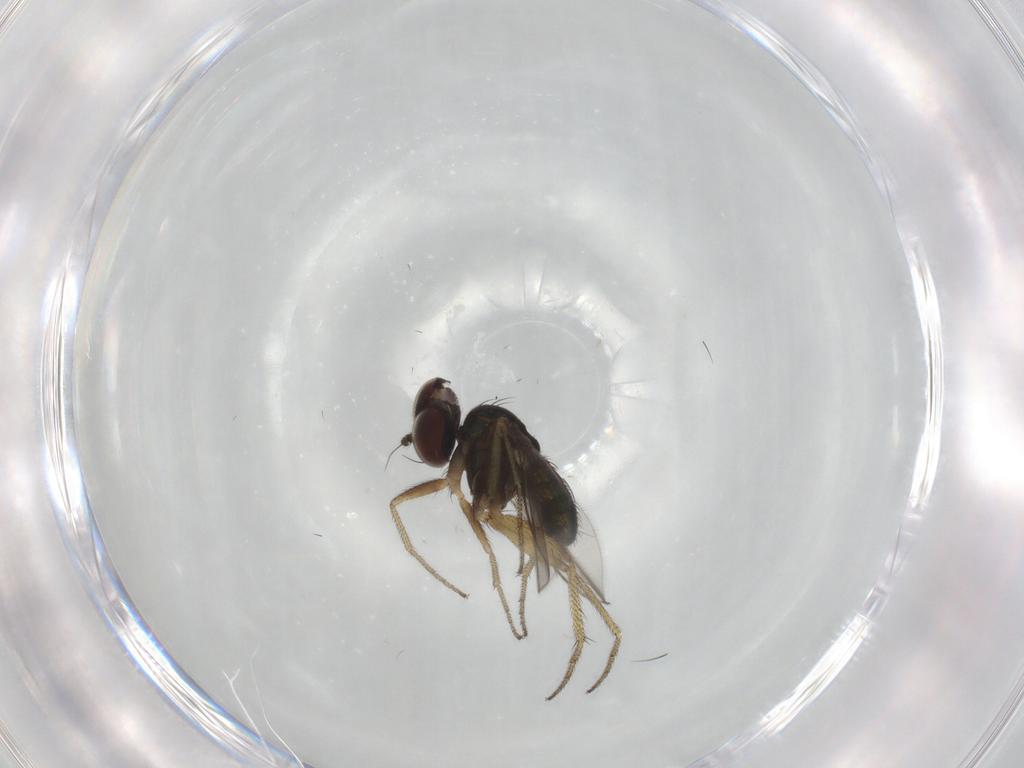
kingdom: Animalia
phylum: Arthropoda
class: Insecta
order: Diptera
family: Dolichopodidae
